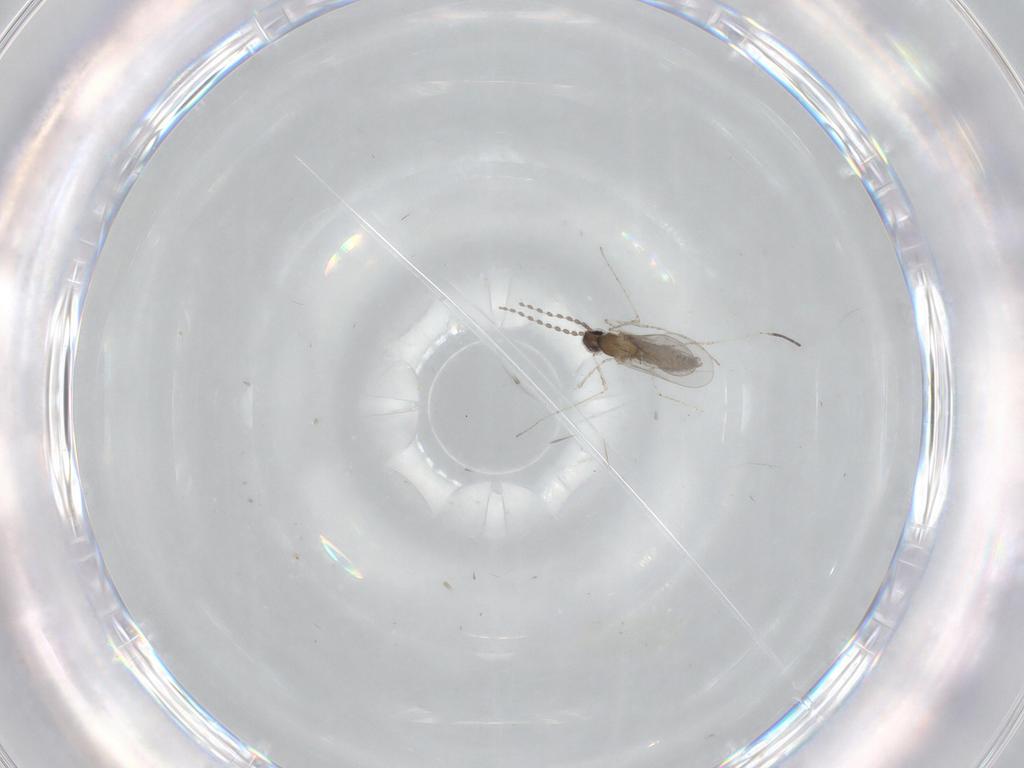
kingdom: Animalia
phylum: Arthropoda
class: Insecta
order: Diptera
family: Cecidomyiidae
